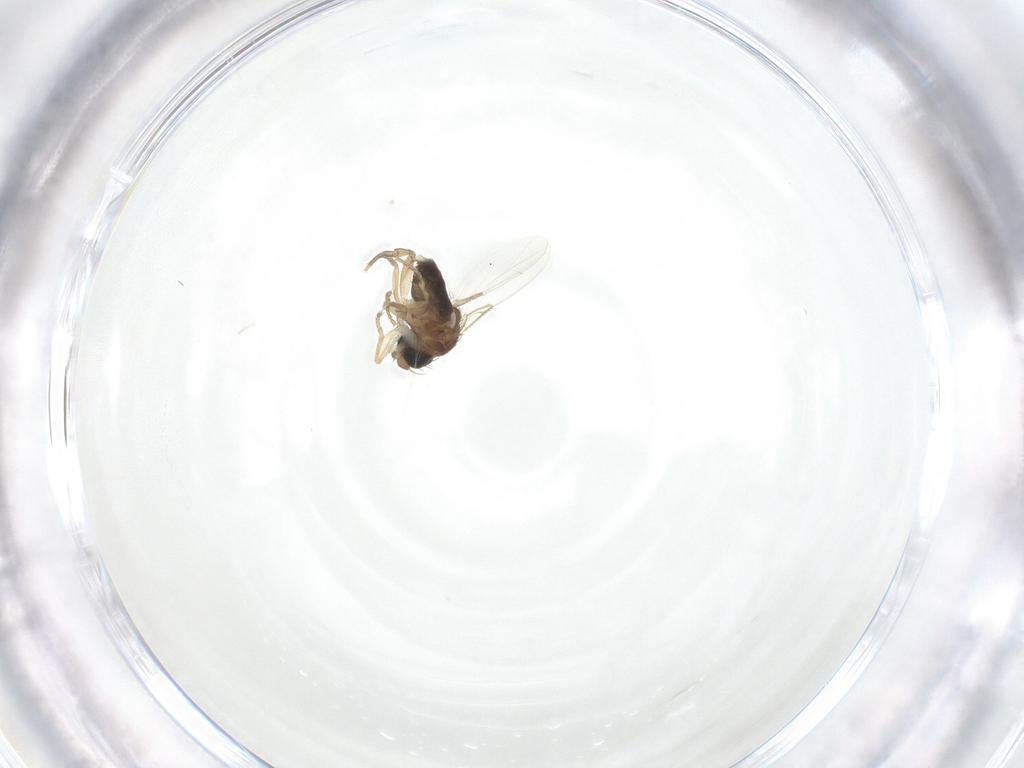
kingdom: Animalia
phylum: Arthropoda
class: Insecta
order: Diptera
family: Phoridae
